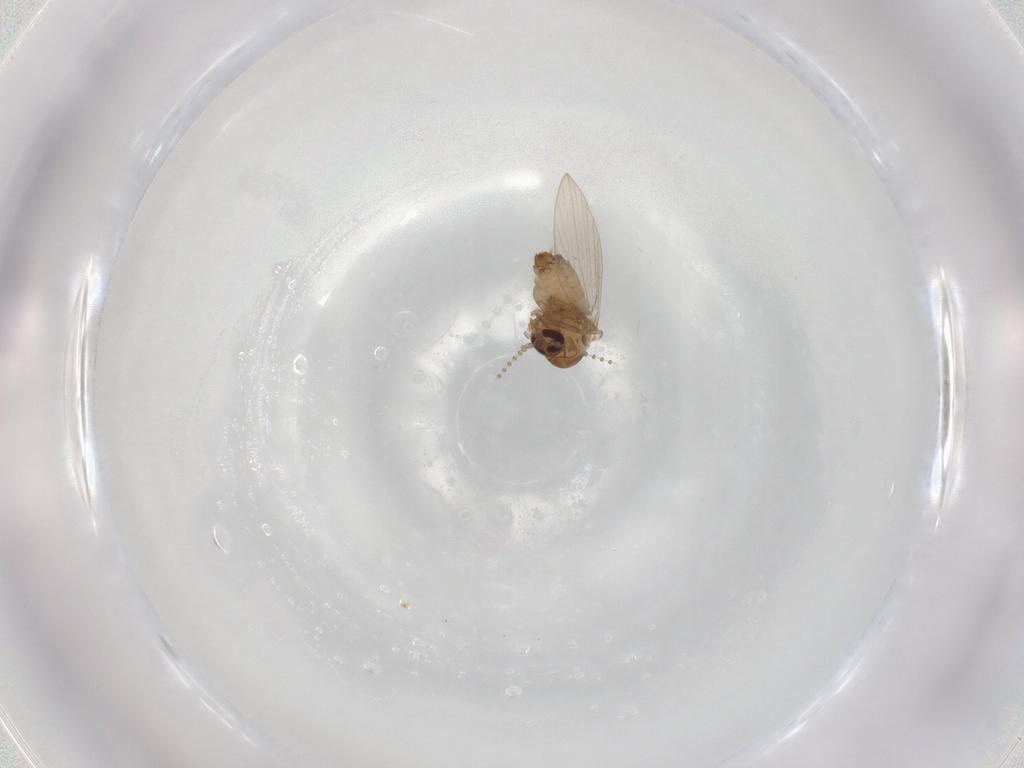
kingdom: Animalia
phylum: Arthropoda
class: Insecta
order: Diptera
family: Psychodidae
